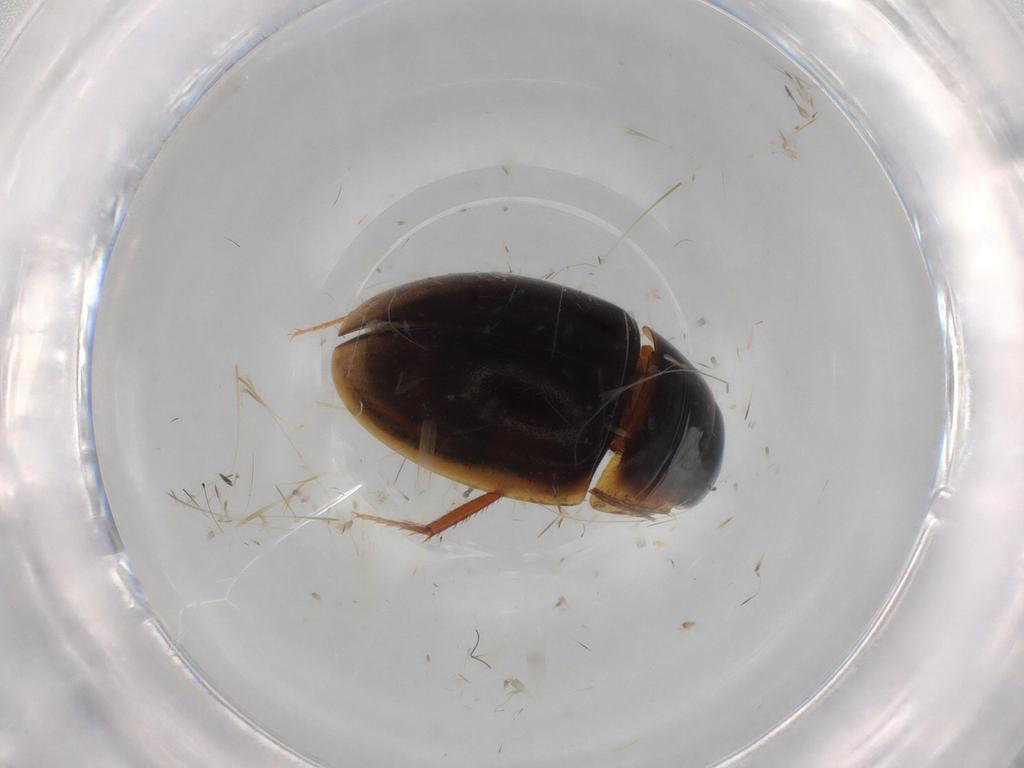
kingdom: Animalia
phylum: Arthropoda
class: Insecta
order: Coleoptera
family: Hydrophilidae
